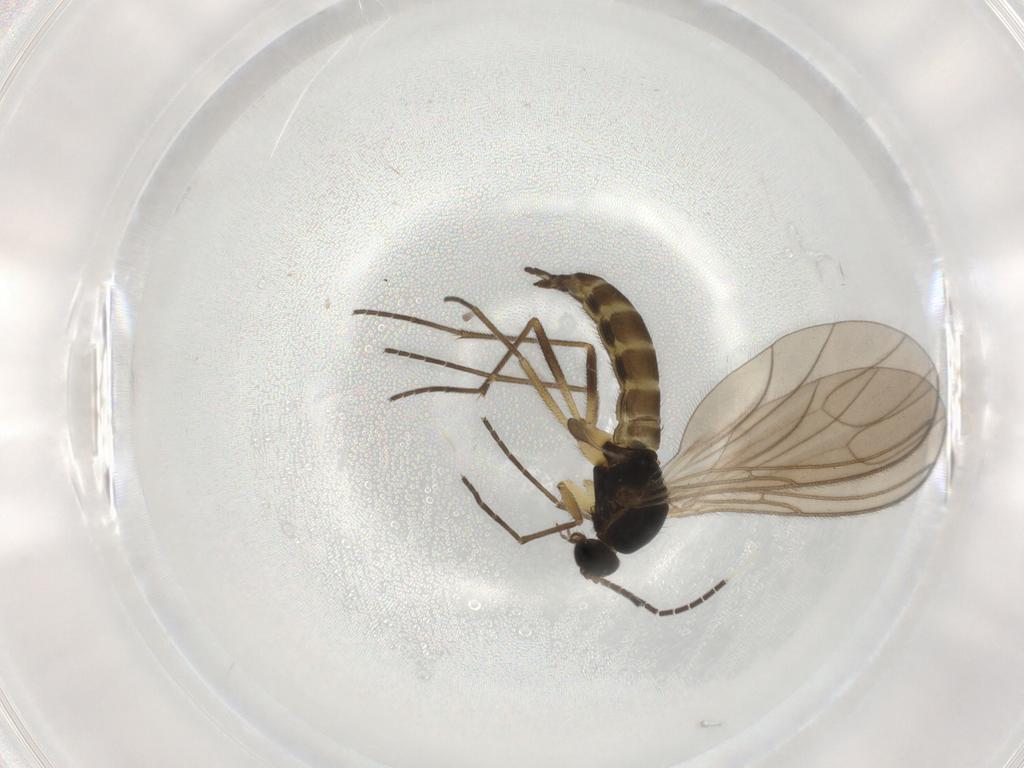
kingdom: Animalia
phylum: Arthropoda
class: Insecta
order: Diptera
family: Sciaridae
